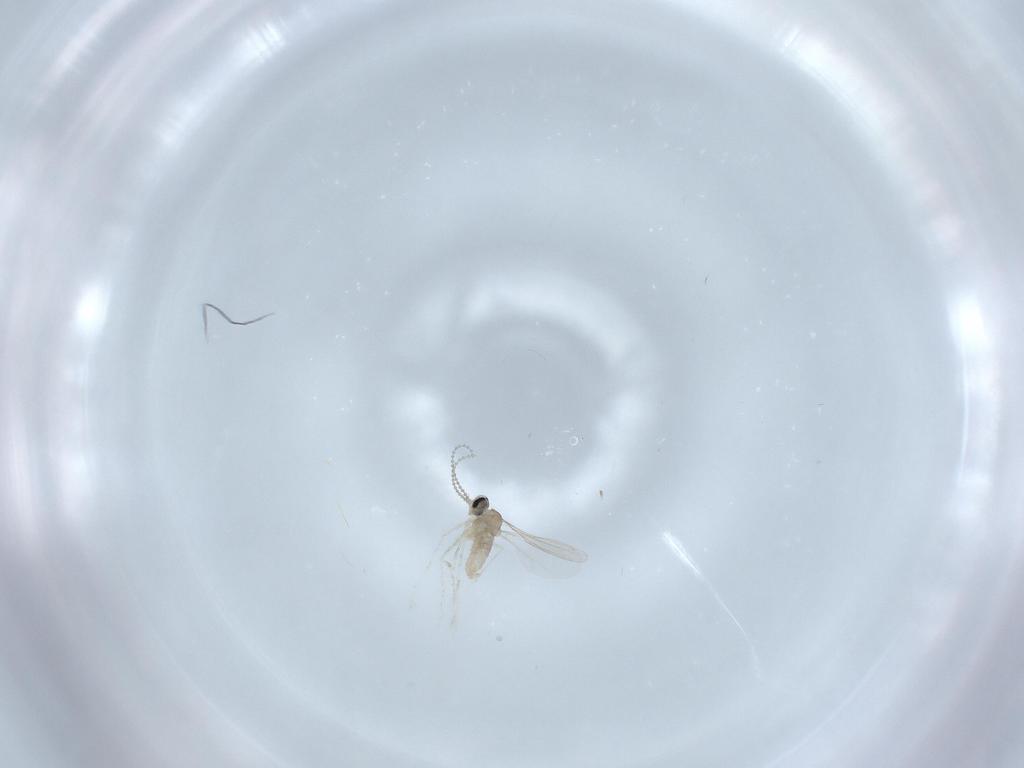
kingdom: Animalia
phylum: Arthropoda
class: Insecta
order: Diptera
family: Cecidomyiidae
